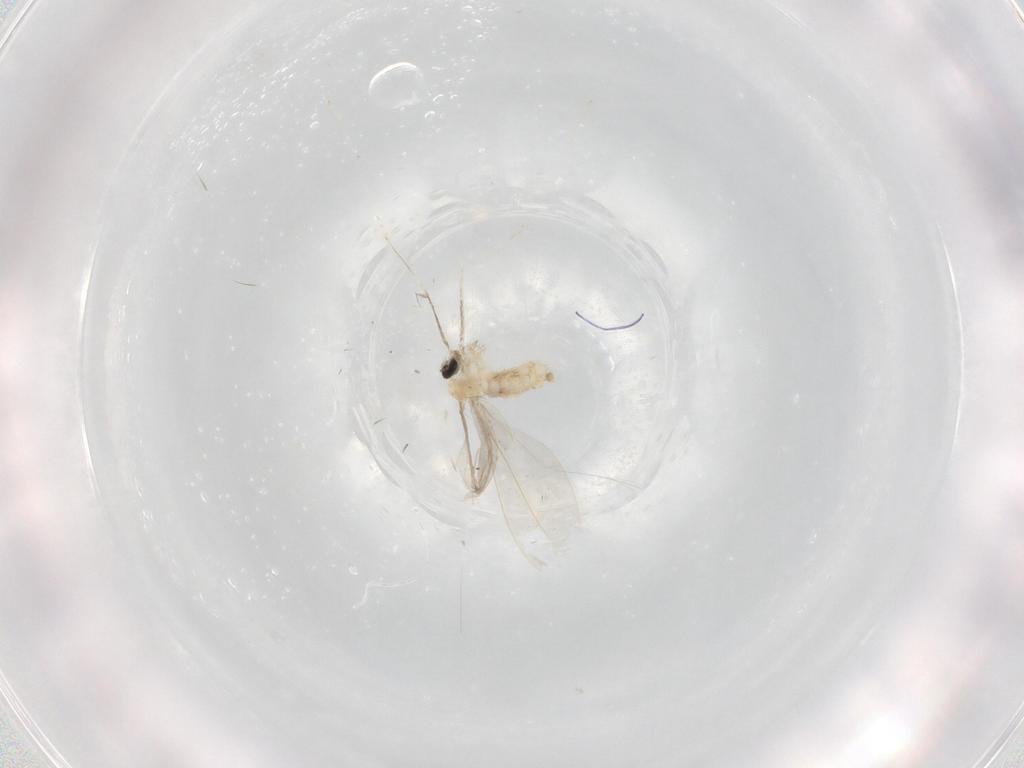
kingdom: Animalia
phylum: Arthropoda
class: Insecta
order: Diptera
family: Cecidomyiidae
